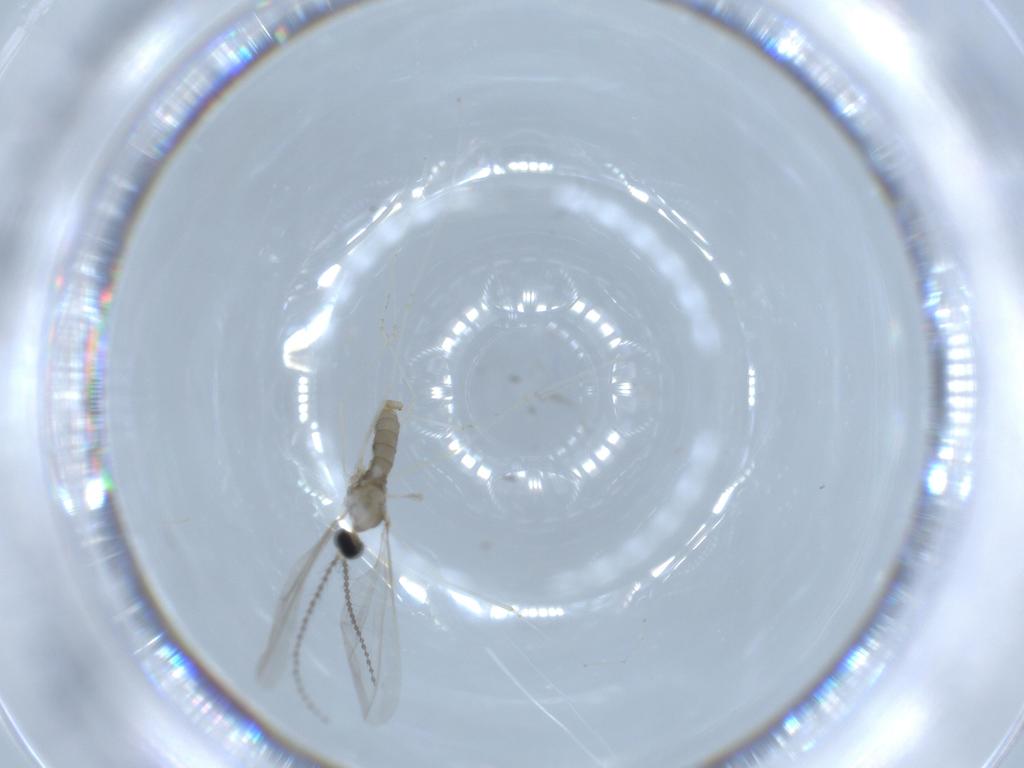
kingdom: Animalia
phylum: Arthropoda
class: Insecta
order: Diptera
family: Phoridae
